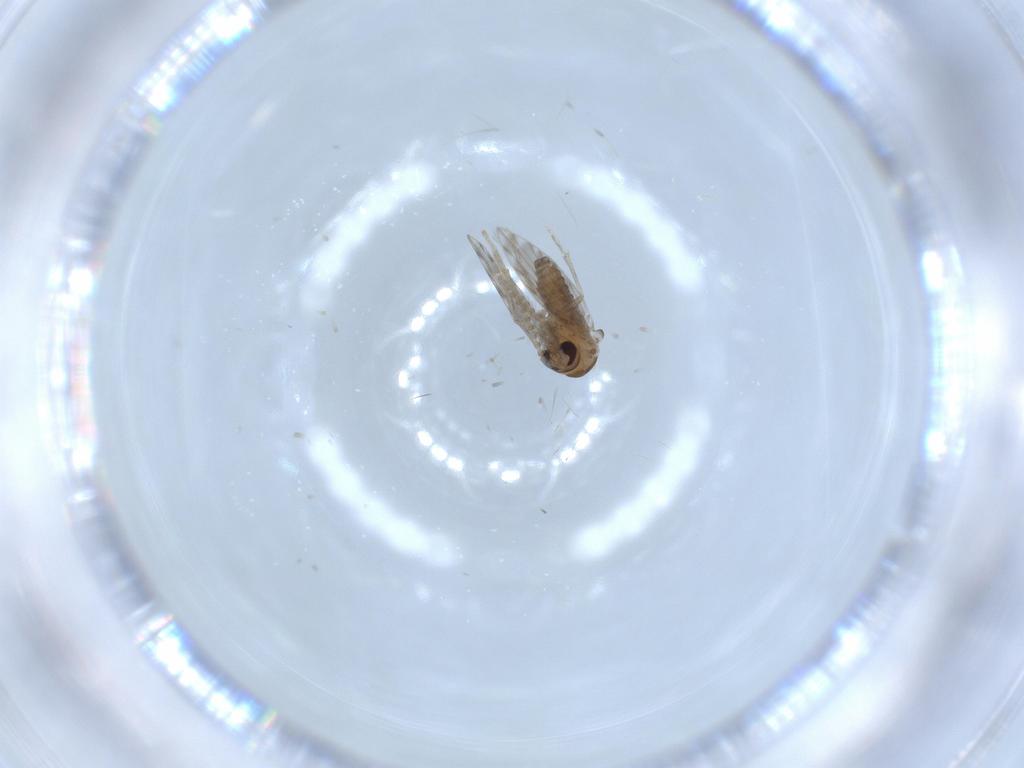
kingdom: Animalia
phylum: Arthropoda
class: Insecta
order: Diptera
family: Psychodidae
